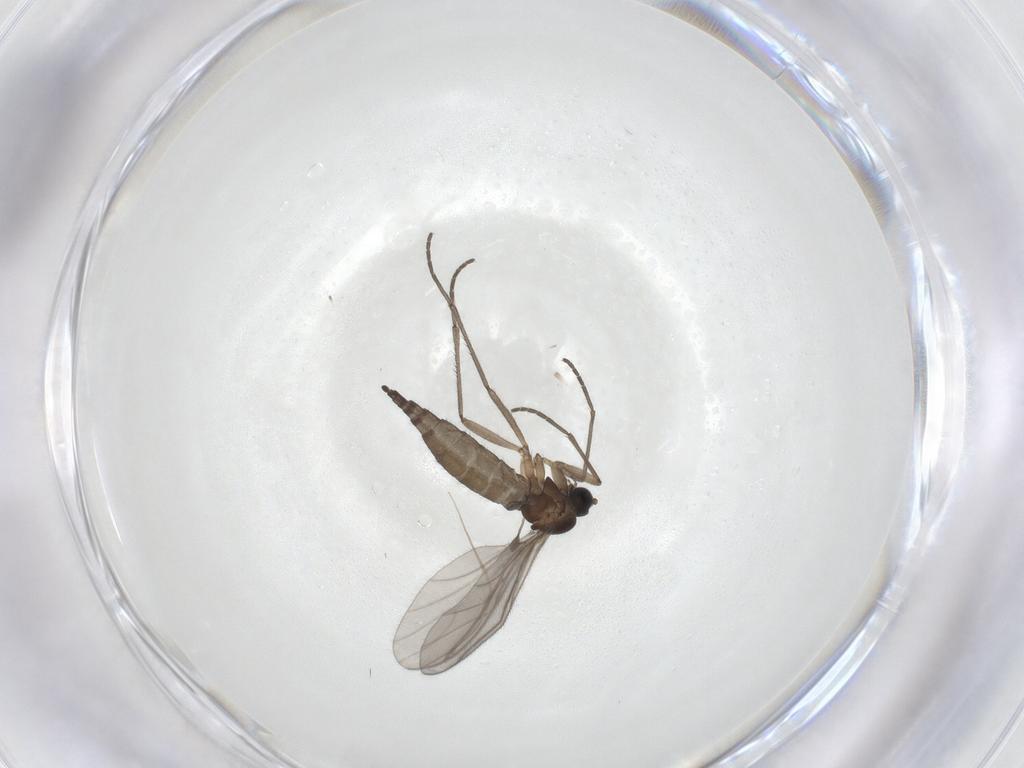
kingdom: Animalia
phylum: Arthropoda
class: Insecta
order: Diptera
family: Sciaridae
